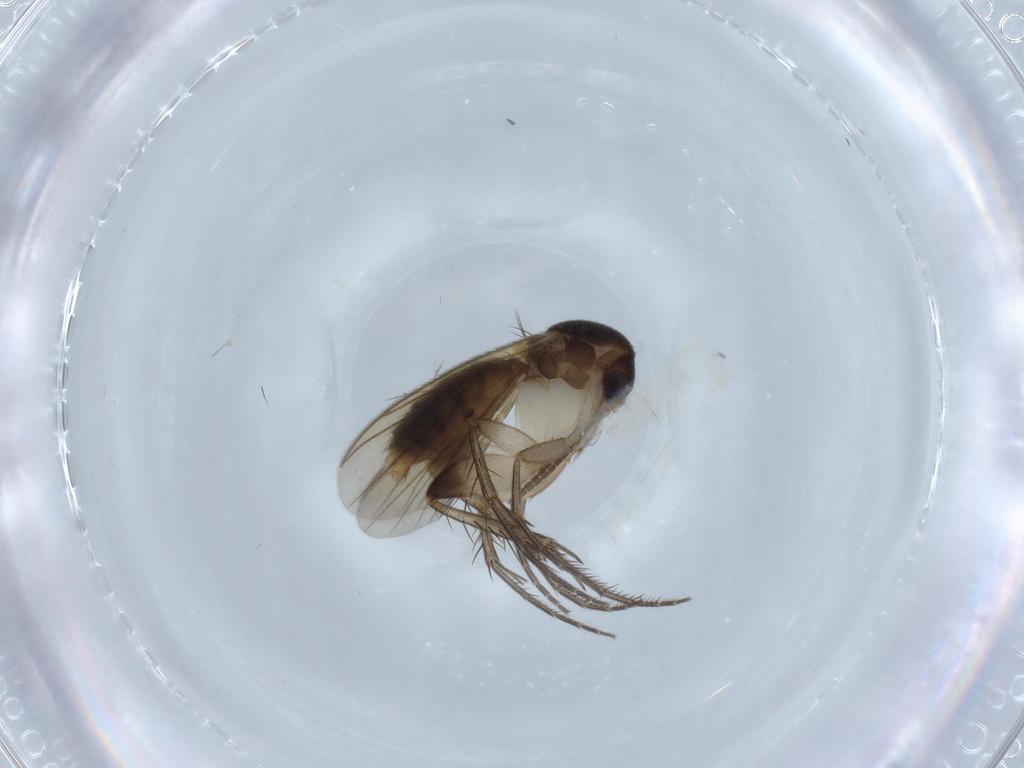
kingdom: Animalia
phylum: Arthropoda
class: Insecta
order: Diptera
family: Mycetophilidae
